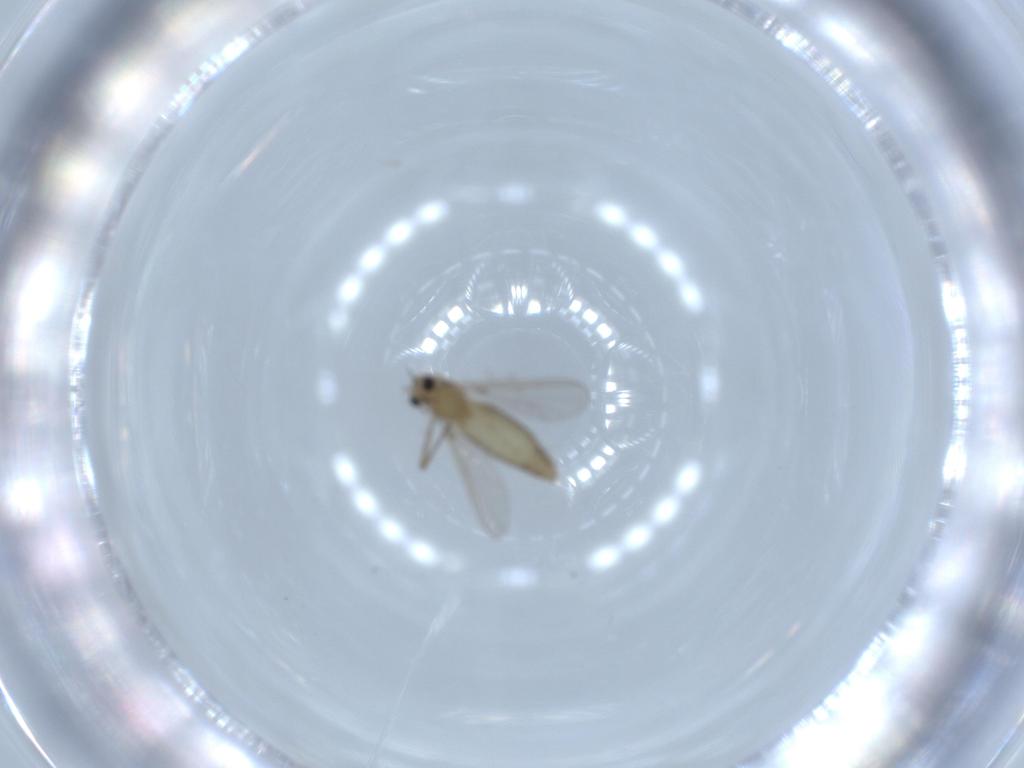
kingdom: Animalia
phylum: Arthropoda
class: Insecta
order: Diptera
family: Chironomidae
